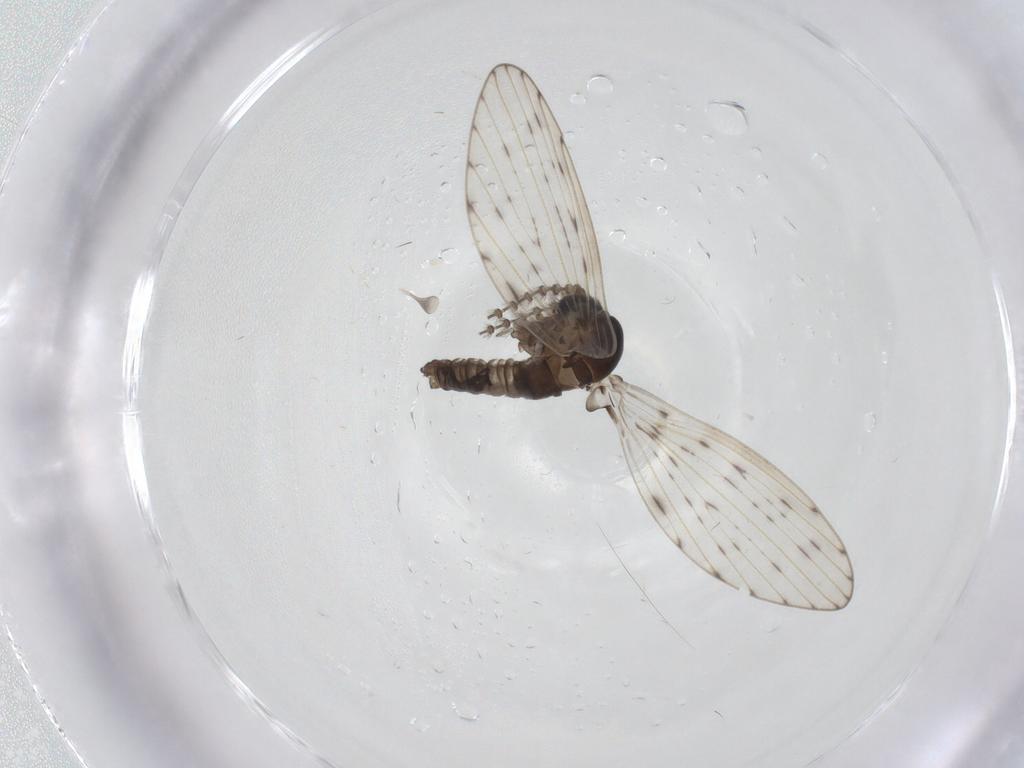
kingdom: Animalia
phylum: Arthropoda
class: Insecta
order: Diptera
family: Psychodidae
